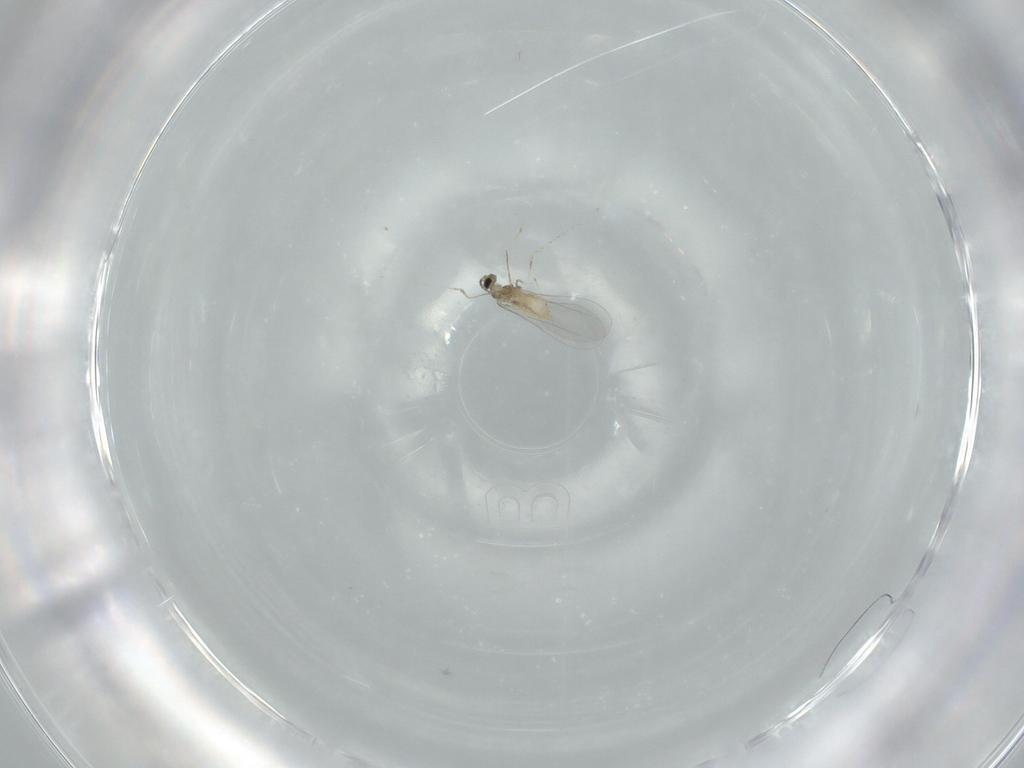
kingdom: Animalia
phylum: Arthropoda
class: Insecta
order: Diptera
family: Cecidomyiidae
